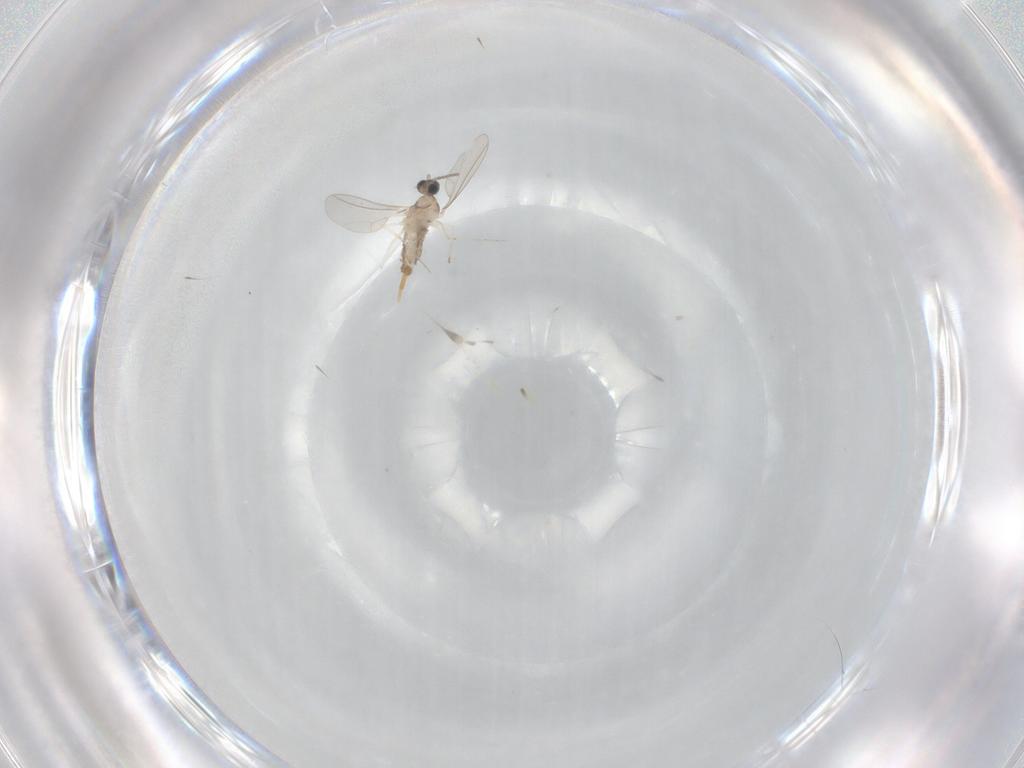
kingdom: Animalia
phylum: Arthropoda
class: Insecta
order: Diptera
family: Cecidomyiidae
